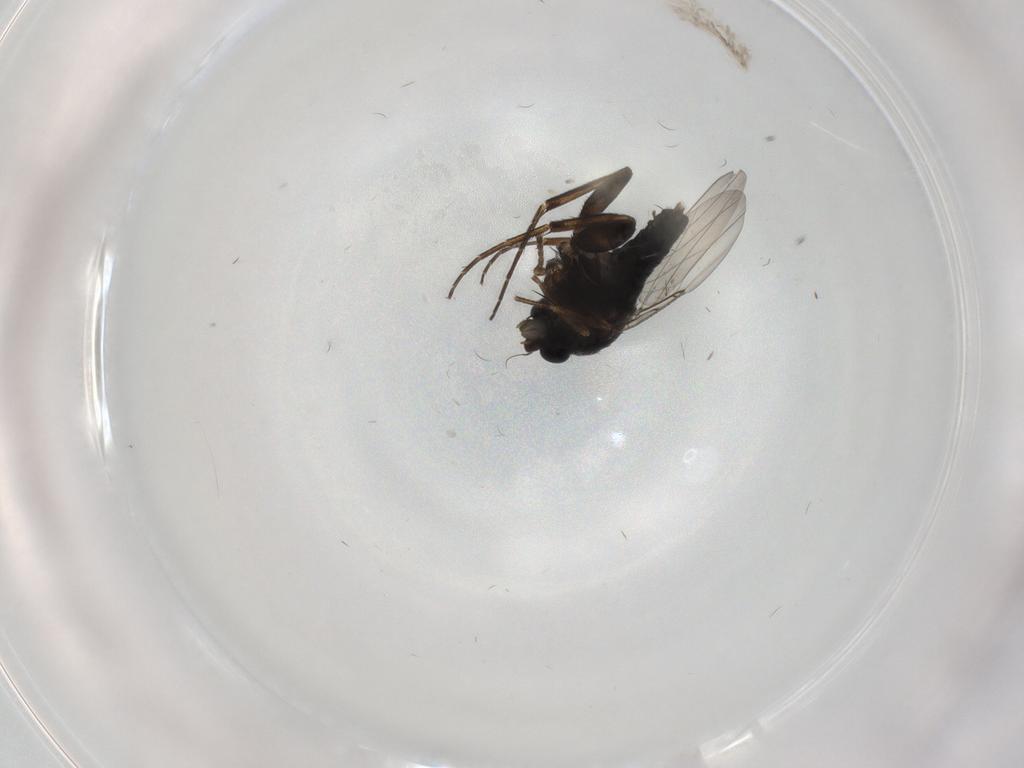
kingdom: Animalia
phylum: Arthropoda
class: Insecta
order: Diptera
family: Phoridae
